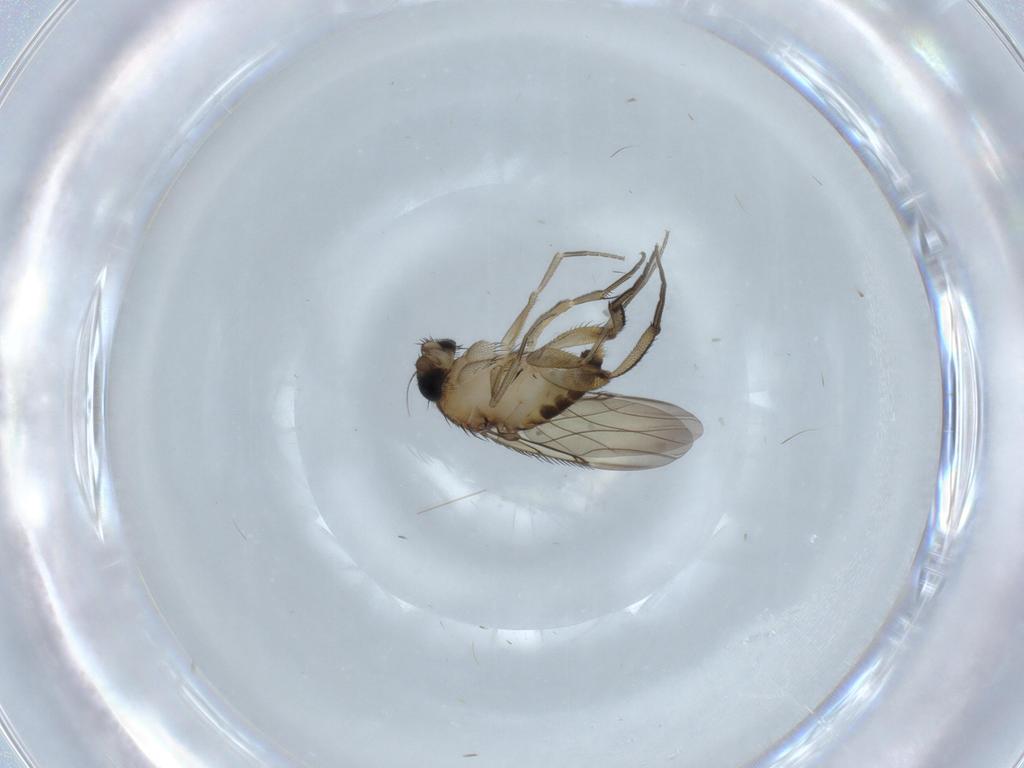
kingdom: Animalia
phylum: Arthropoda
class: Insecta
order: Diptera
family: Phoridae
